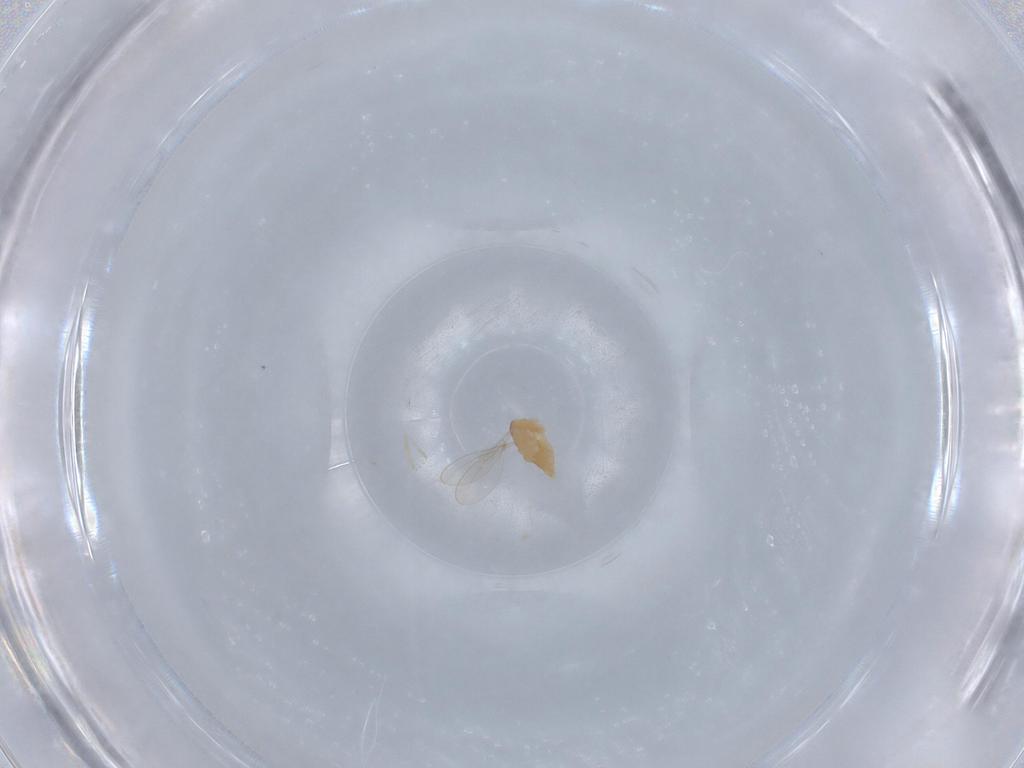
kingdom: Animalia
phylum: Arthropoda
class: Insecta
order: Diptera
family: Cecidomyiidae
